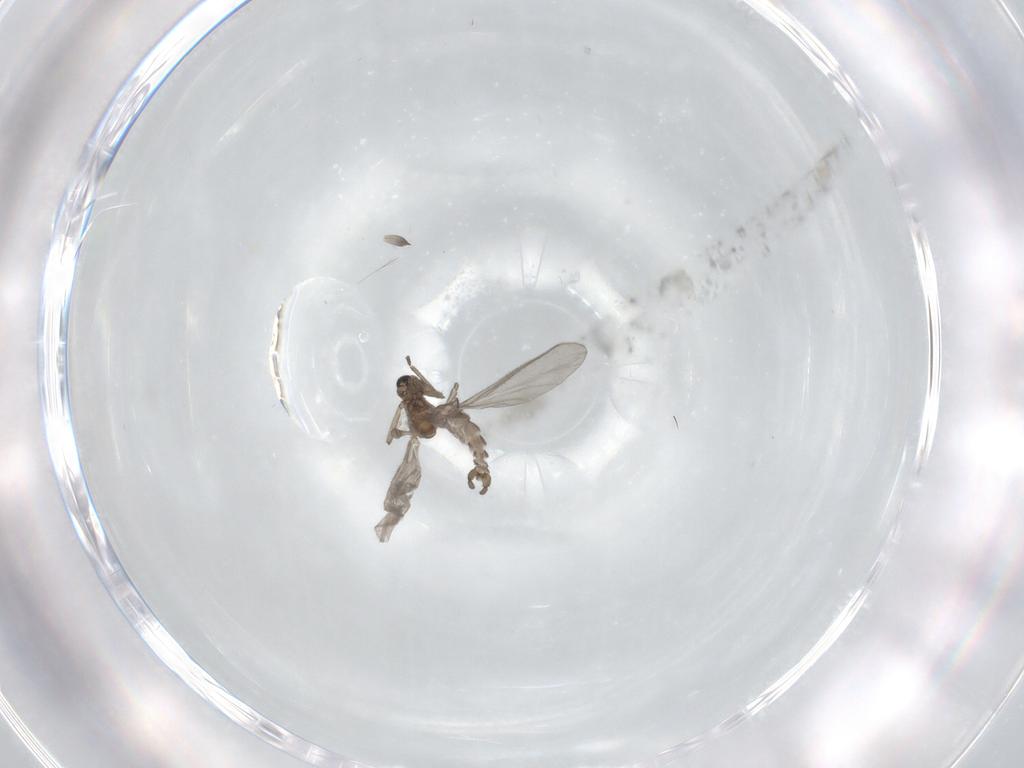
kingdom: Animalia
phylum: Arthropoda
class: Insecta
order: Diptera
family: Sciaridae
